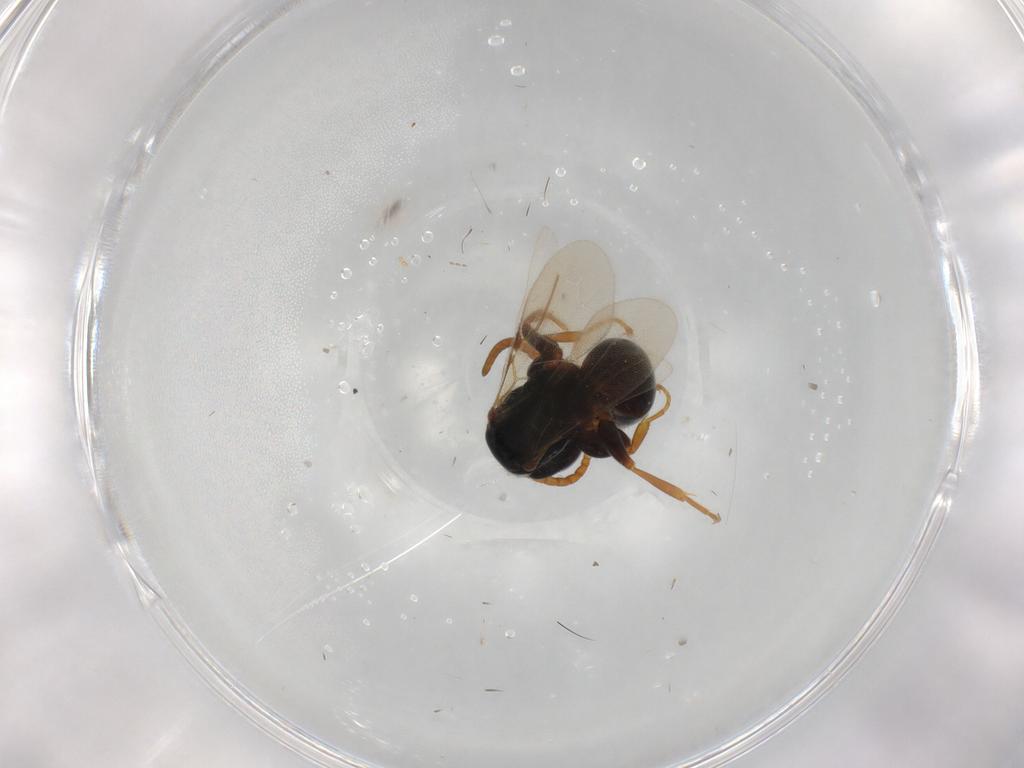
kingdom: Animalia
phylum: Arthropoda
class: Insecta
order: Hymenoptera
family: Bethylidae
